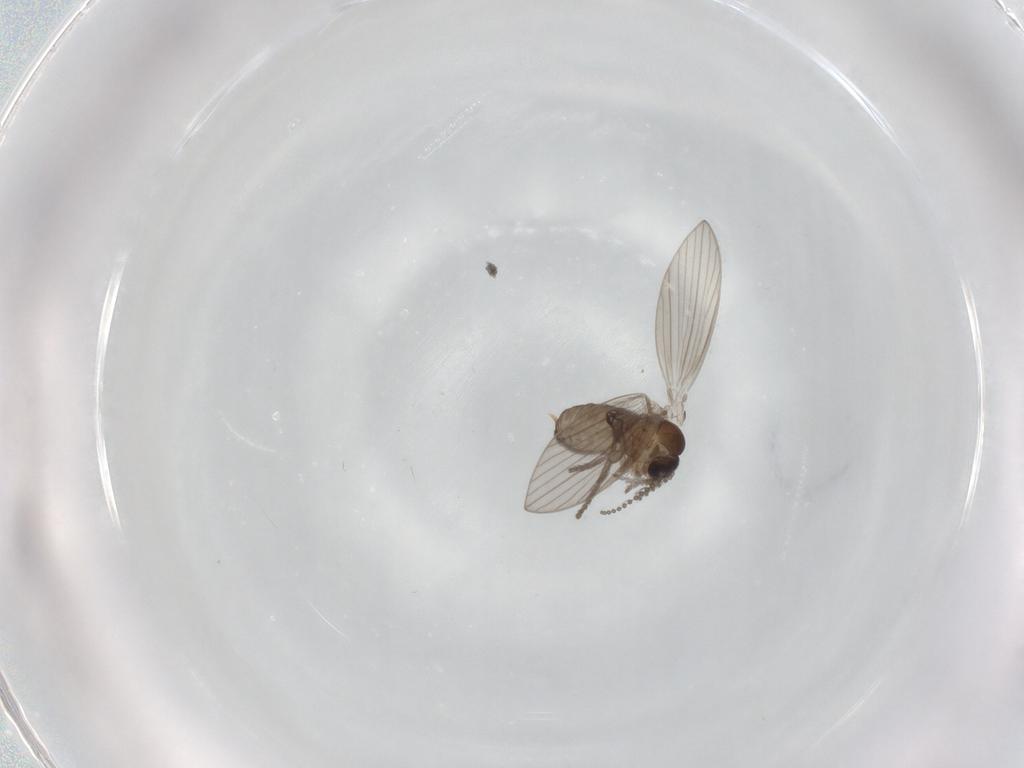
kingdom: Animalia
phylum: Arthropoda
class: Insecta
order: Diptera
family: Psychodidae
